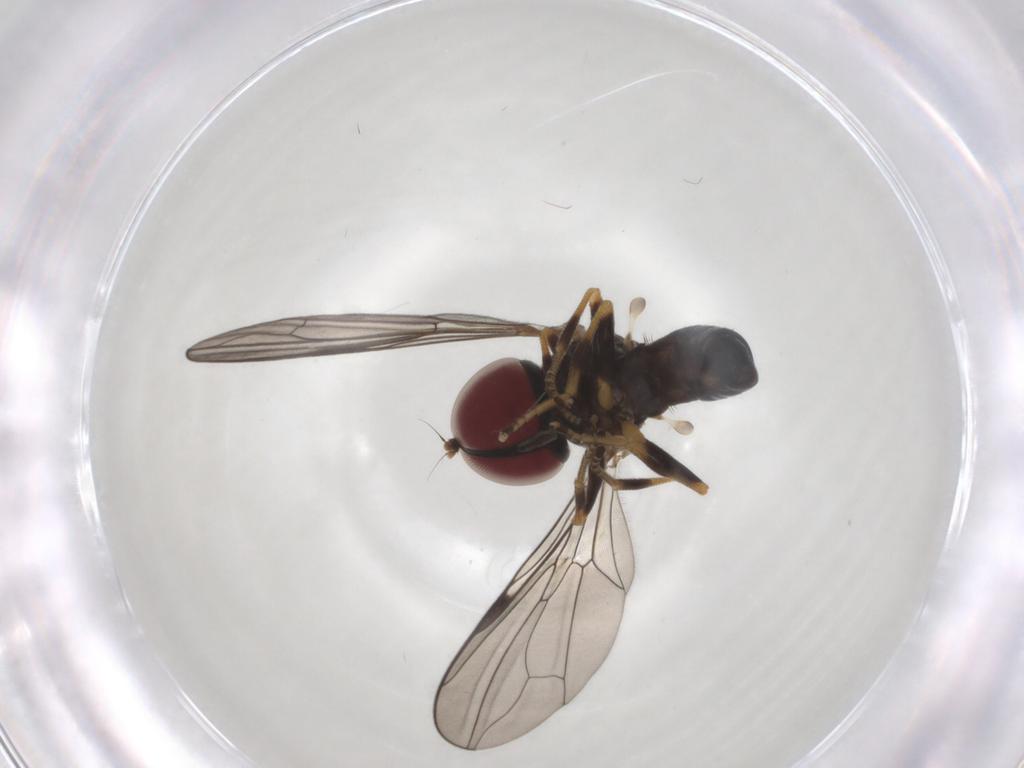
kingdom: Animalia
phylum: Arthropoda
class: Insecta
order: Diptera
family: Pipunculidae
